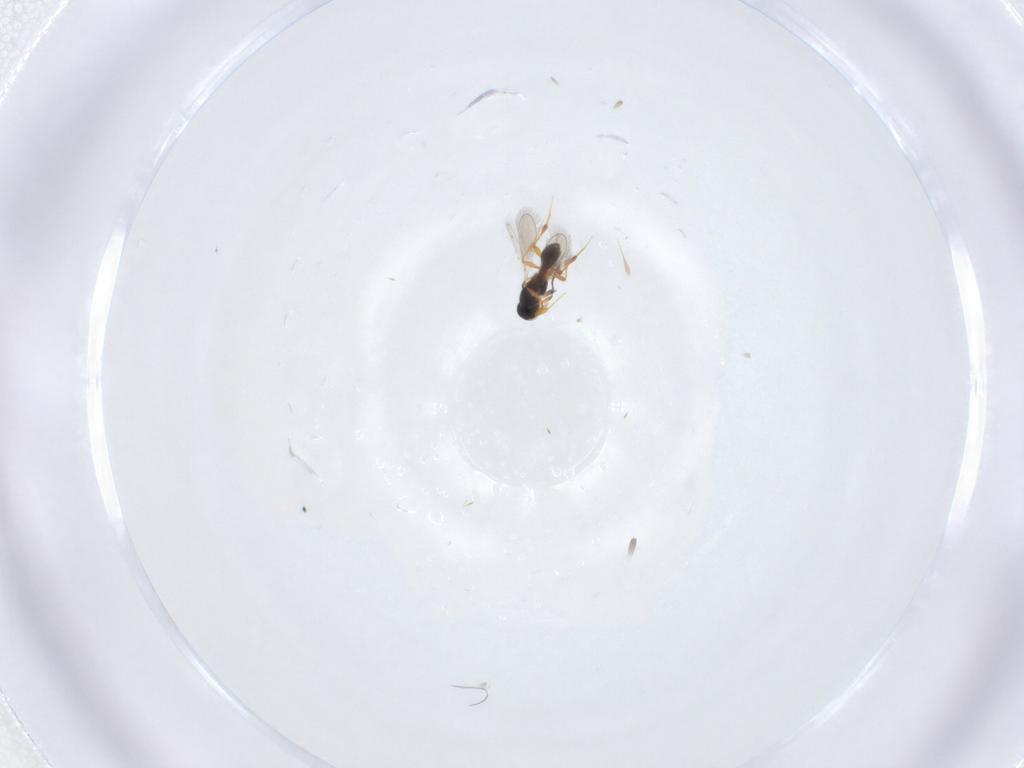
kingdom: Animalia
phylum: Arthropoda
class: Insecta
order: Hymenoptera
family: Platygastridae
